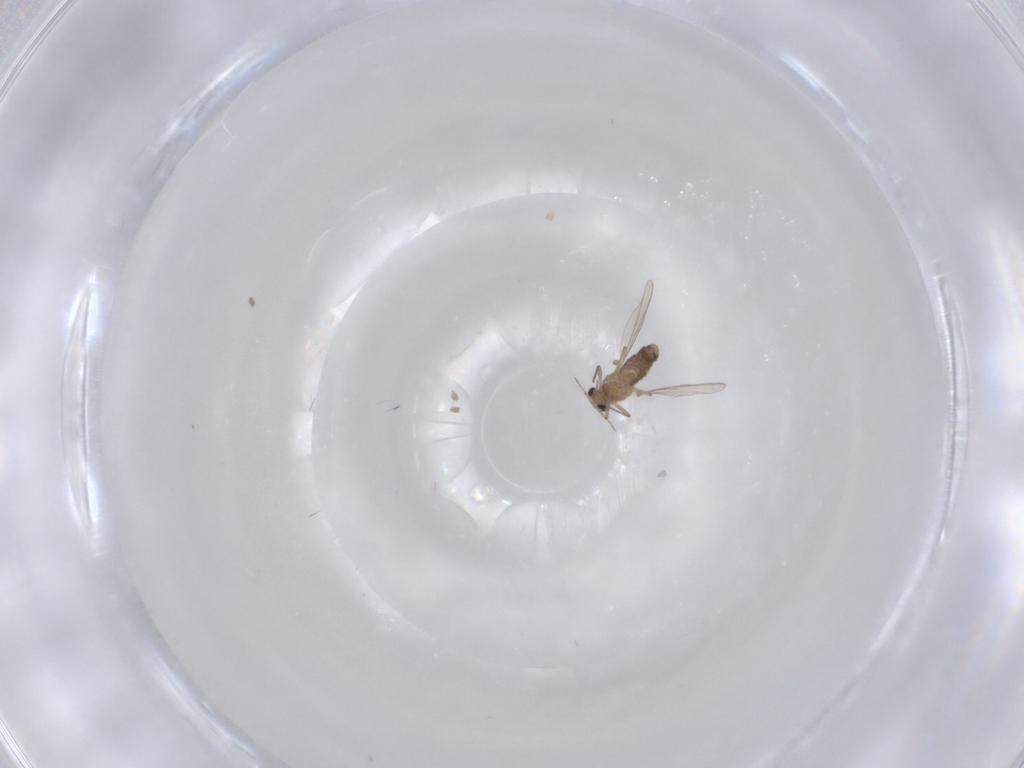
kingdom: Animalia
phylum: Arthropoda
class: Insecta
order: Diptera
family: Chironomidae
